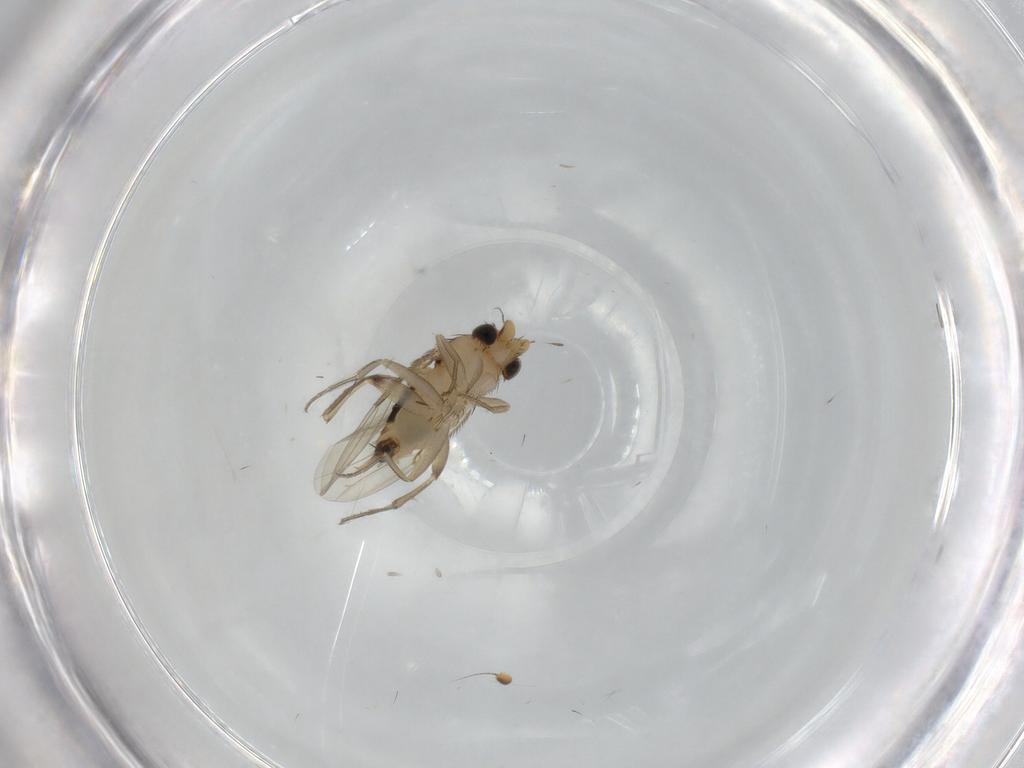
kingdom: Animalia
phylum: Arthropoda
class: Insecta
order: Diptera
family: Phoridae
